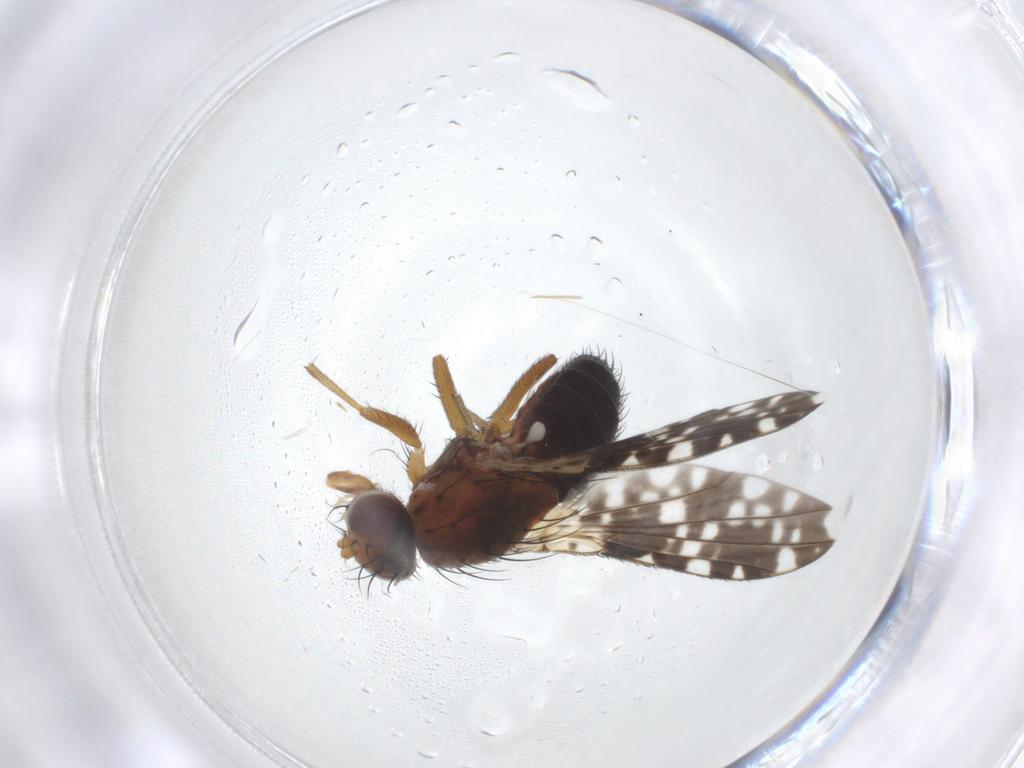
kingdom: Animalia
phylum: Arthropoda
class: Insecta
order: Diptera
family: Heleomyzidae
